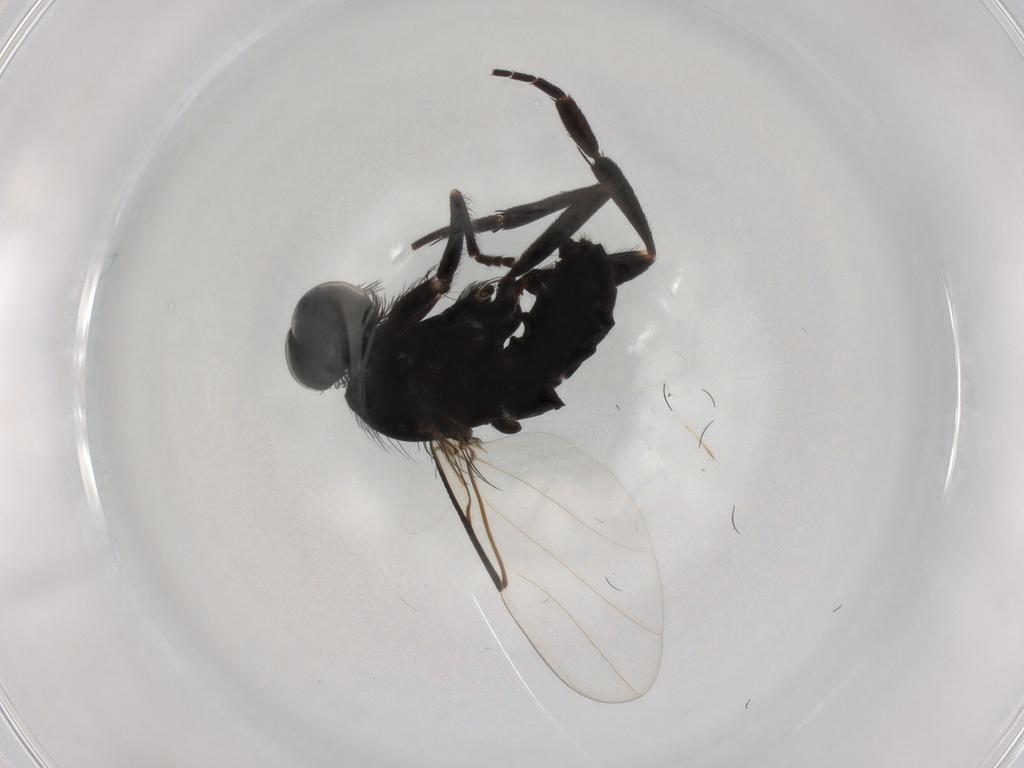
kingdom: Animalia
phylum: Arthropoda
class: Insecta
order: Diptera
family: Phoridae
